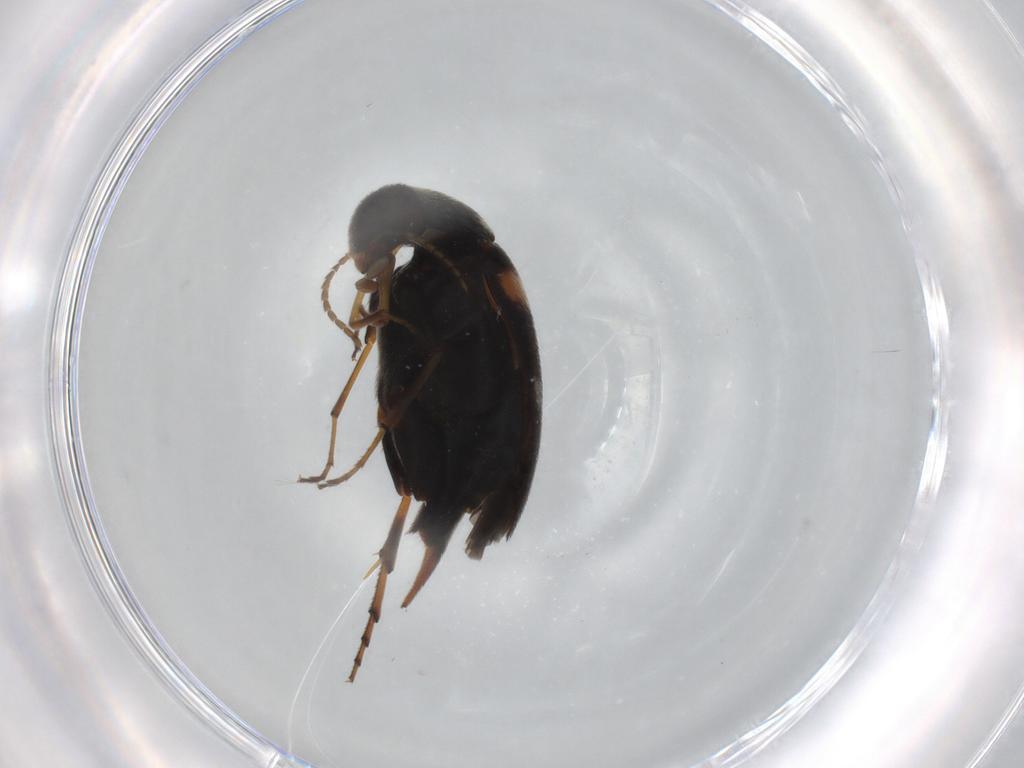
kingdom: Animalia
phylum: Arthropoda
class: Insecta
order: Coleoptera
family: Mordellidae
